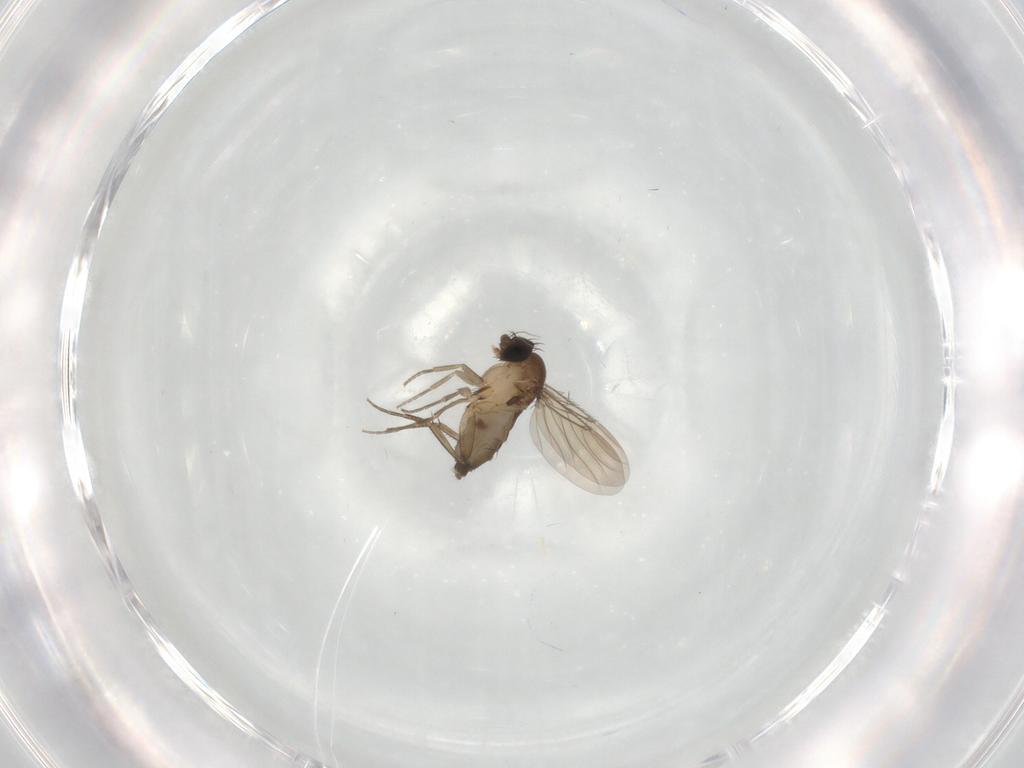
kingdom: Animalia
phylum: Arthropoda
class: Insecta
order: Diptera
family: Phoridae
